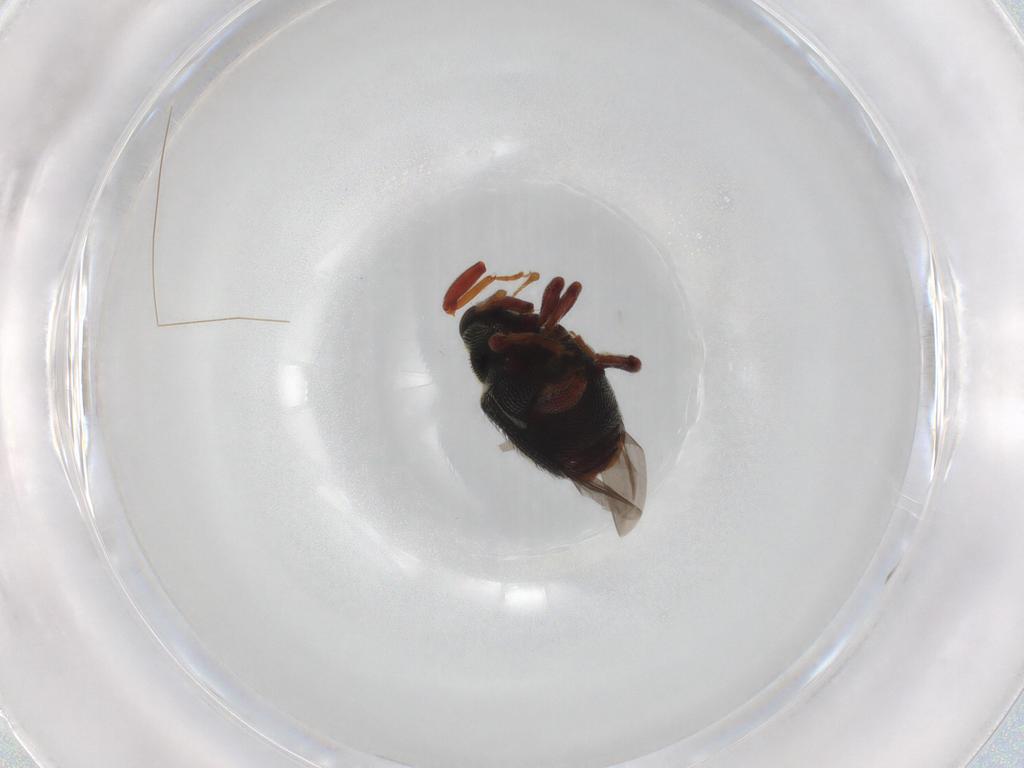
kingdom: Animalia
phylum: Arthropoda
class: Insecta
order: Coleoptera
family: Curculionidae
